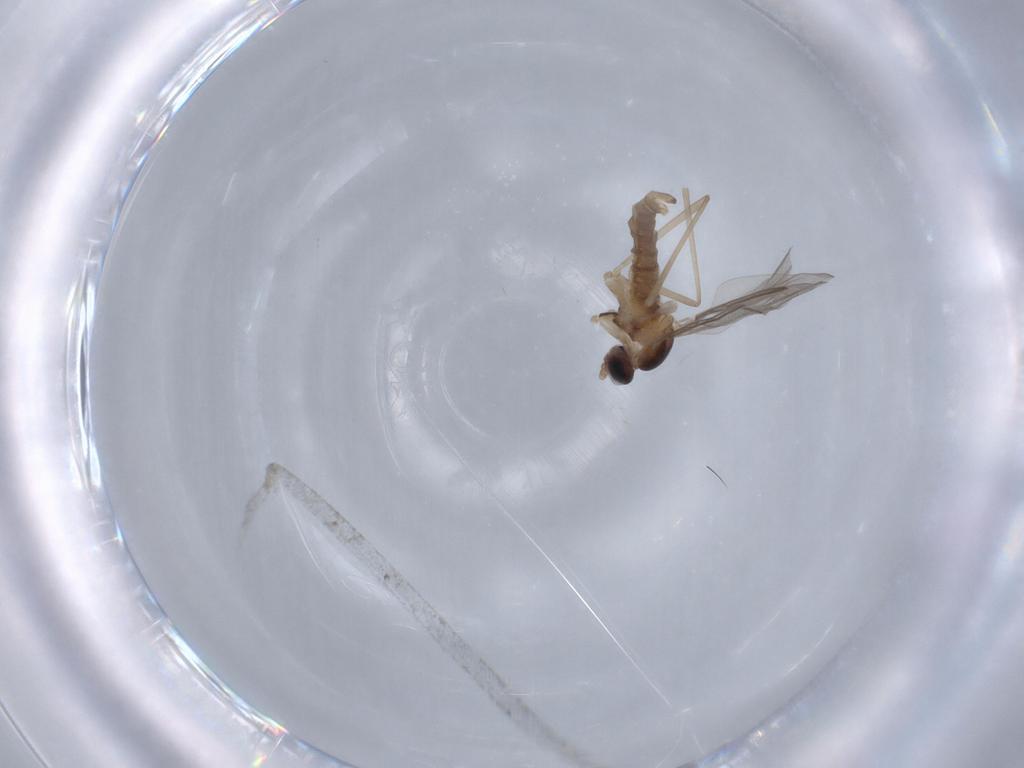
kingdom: Animalia
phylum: Arthropoda
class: Insecta
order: Diptera
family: Cecidomyiidae
